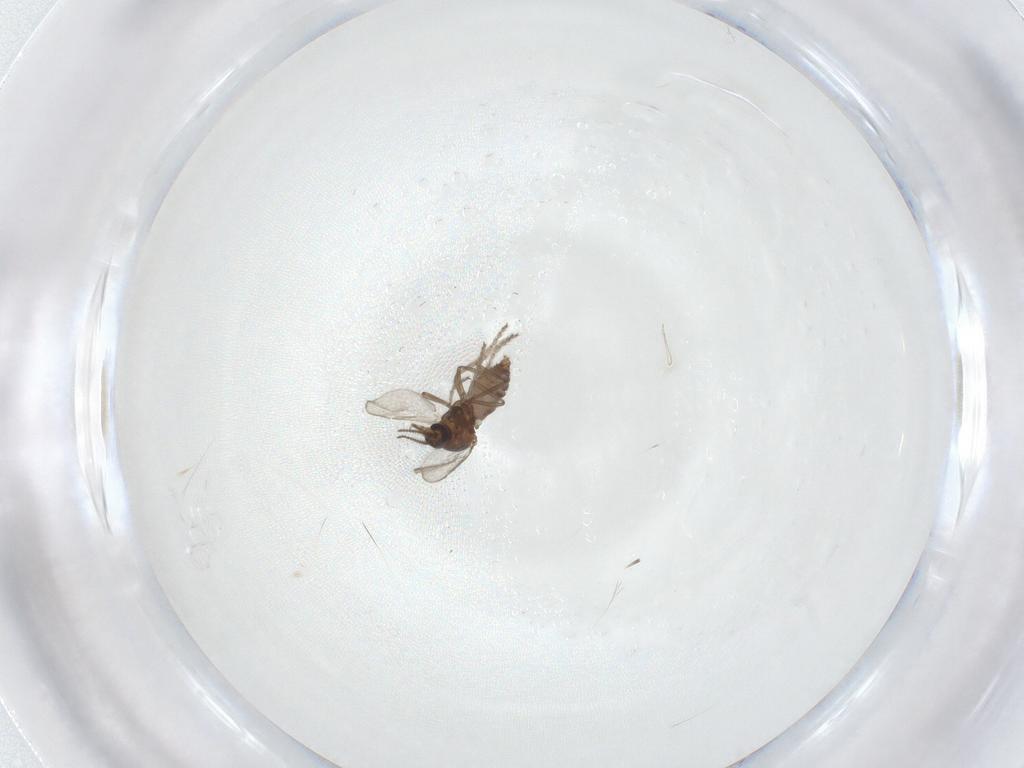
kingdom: Animalia
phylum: Arthropoda
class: Insecta
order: Diptera
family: Ceratopogonidae
